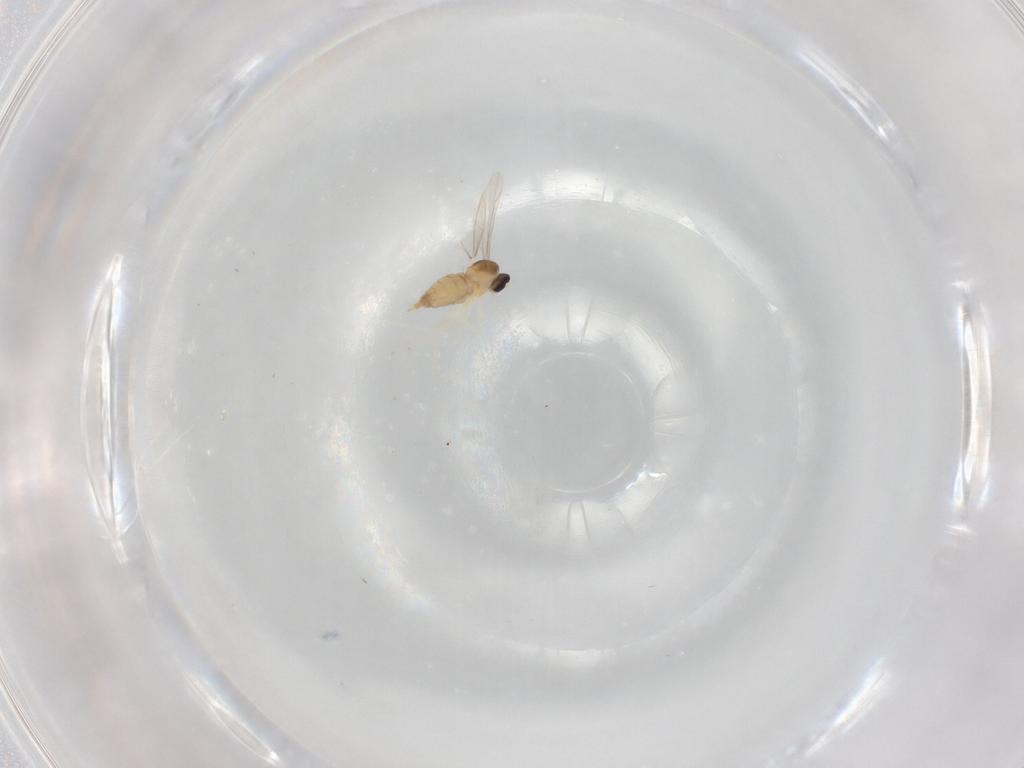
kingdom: Animalia
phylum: Arthropoda
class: Insecta
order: Diptera
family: Cecidomyiidae
